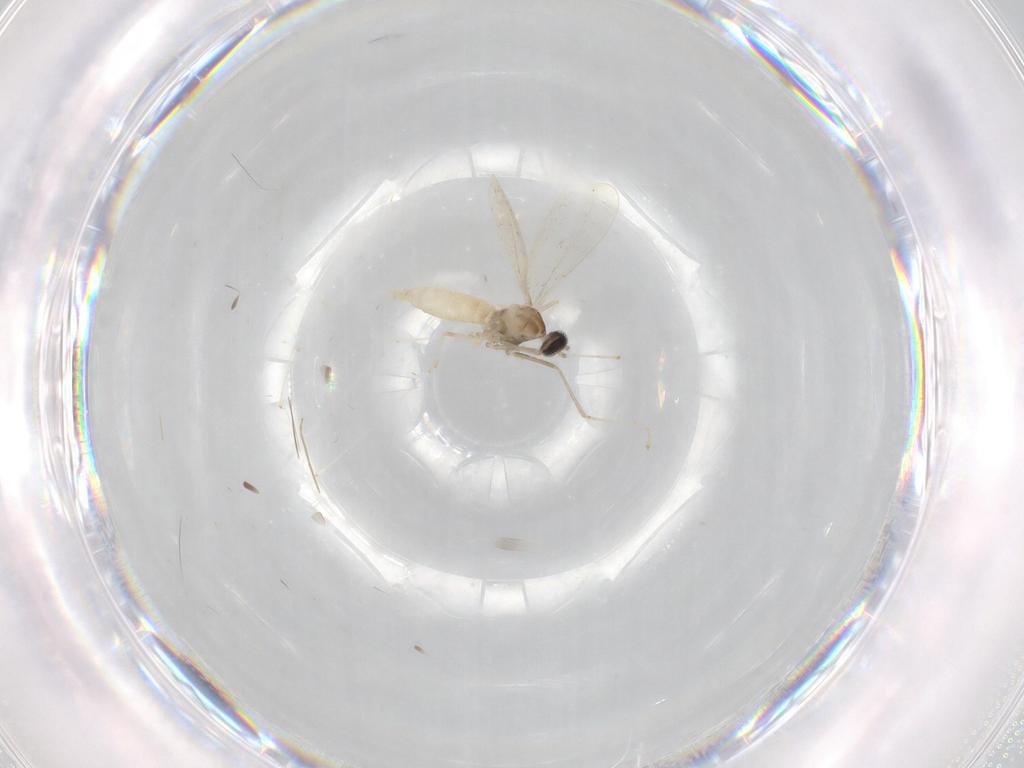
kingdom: Animalia
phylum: Arthropoda
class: Insecta
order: Diptera
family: Cecidomyiidae
